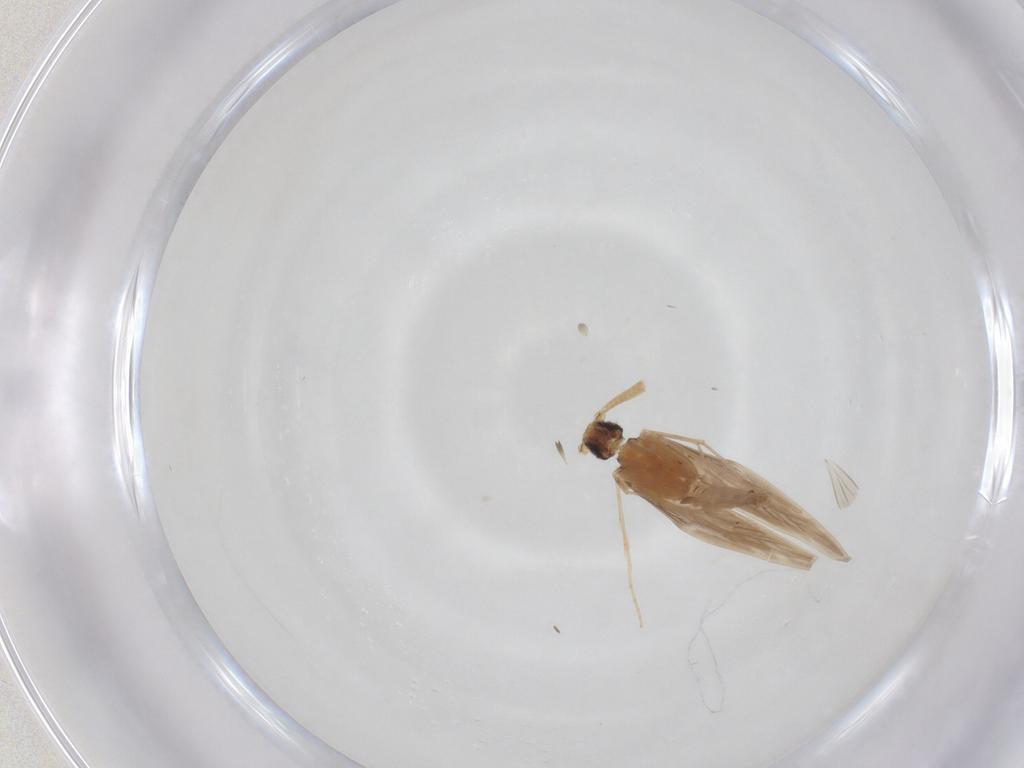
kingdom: Animalia
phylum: Arthropoda
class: Insecta
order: Trichoptera
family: Hydroptilidae
